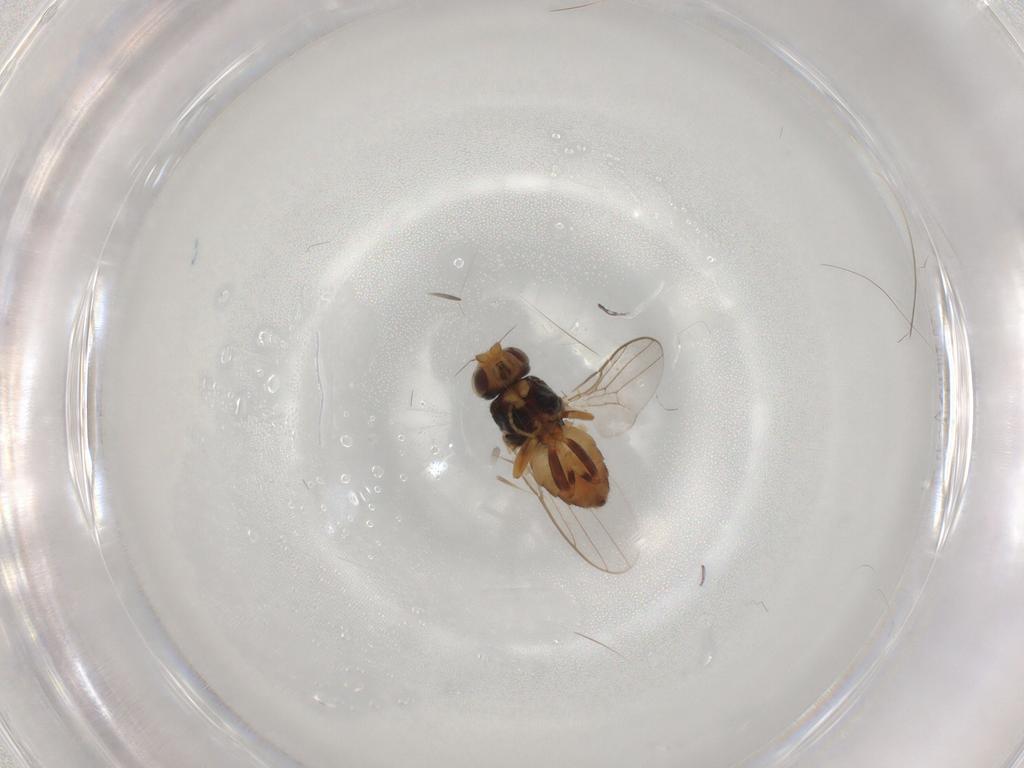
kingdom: Animalia
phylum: Arthropoda
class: Insecta
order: Diptera
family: Chloropidae
